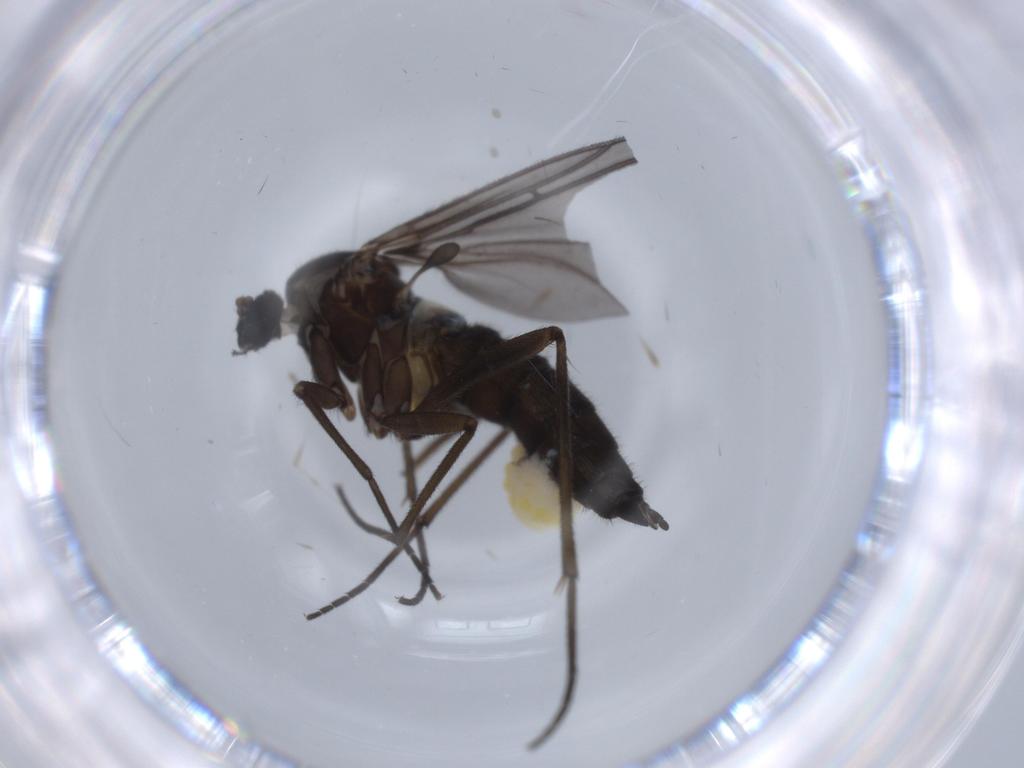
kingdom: Animalia
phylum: Arthropoda
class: Insecta
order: Diptera
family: Sciaridae
